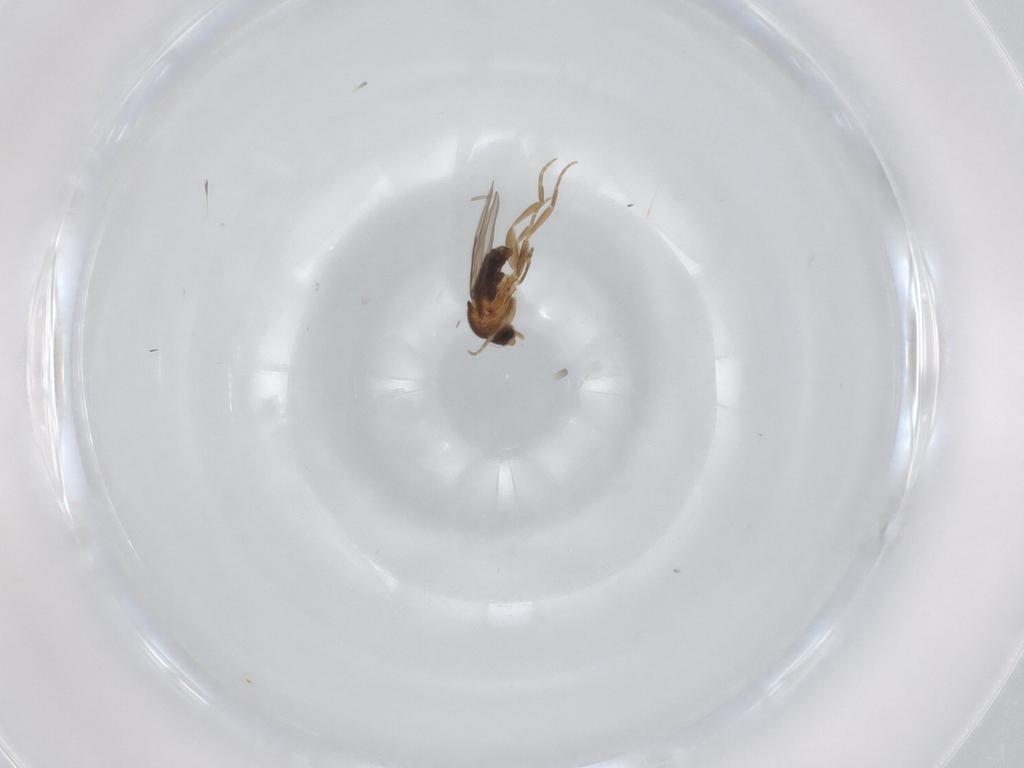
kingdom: Animalia
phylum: Arthropoda
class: Insecta
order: Diptera
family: Phoridae
